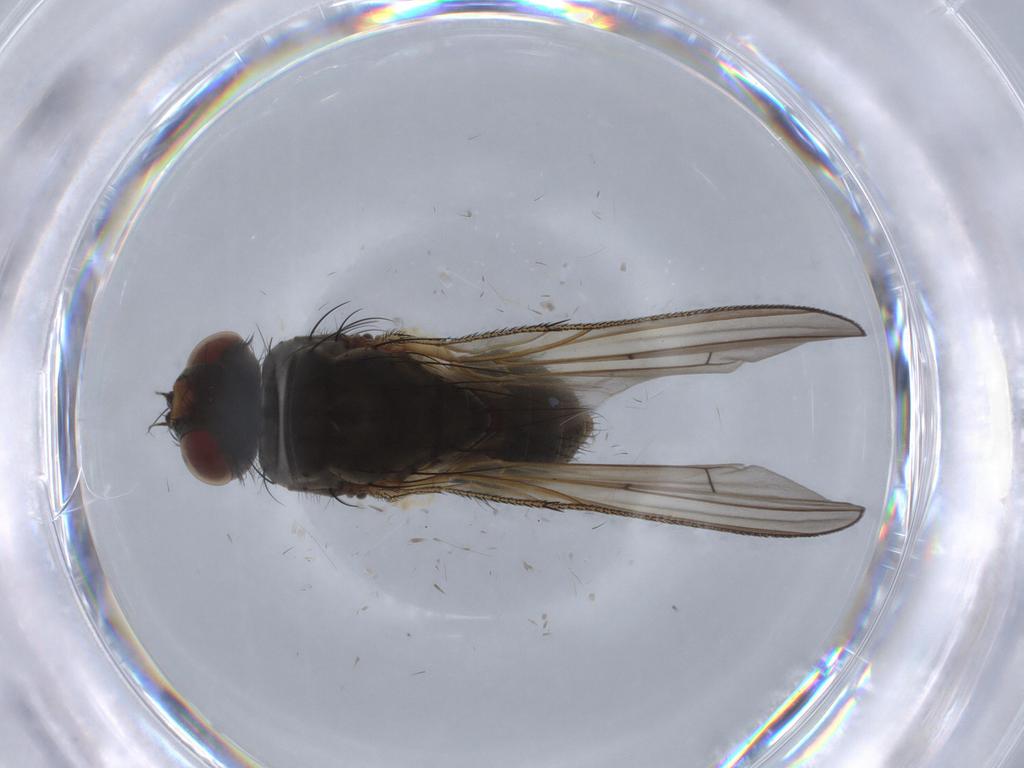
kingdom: Animalia
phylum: Arthropoda
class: Insecta
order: Diptera
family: Anthomyiidae
